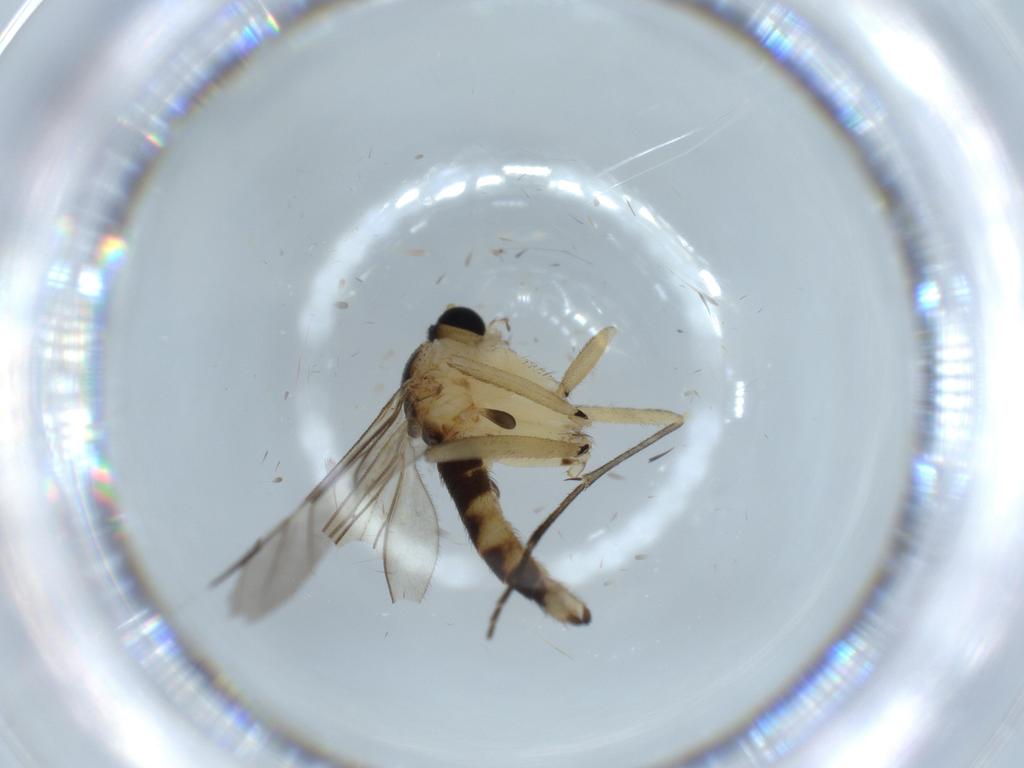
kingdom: Animalia
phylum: Arthropoda
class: Insecta
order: Diptera
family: Sciaridae
